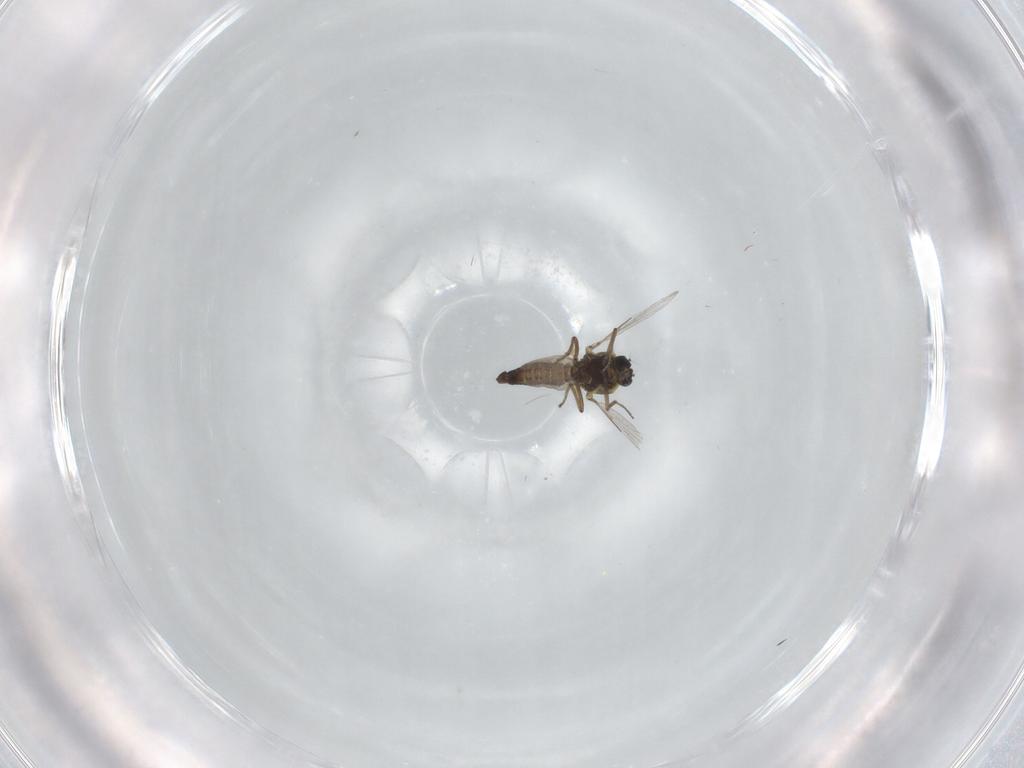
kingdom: Animalia
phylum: Arthropoda
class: Insecta
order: Diptera
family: Ceratopogonidae
